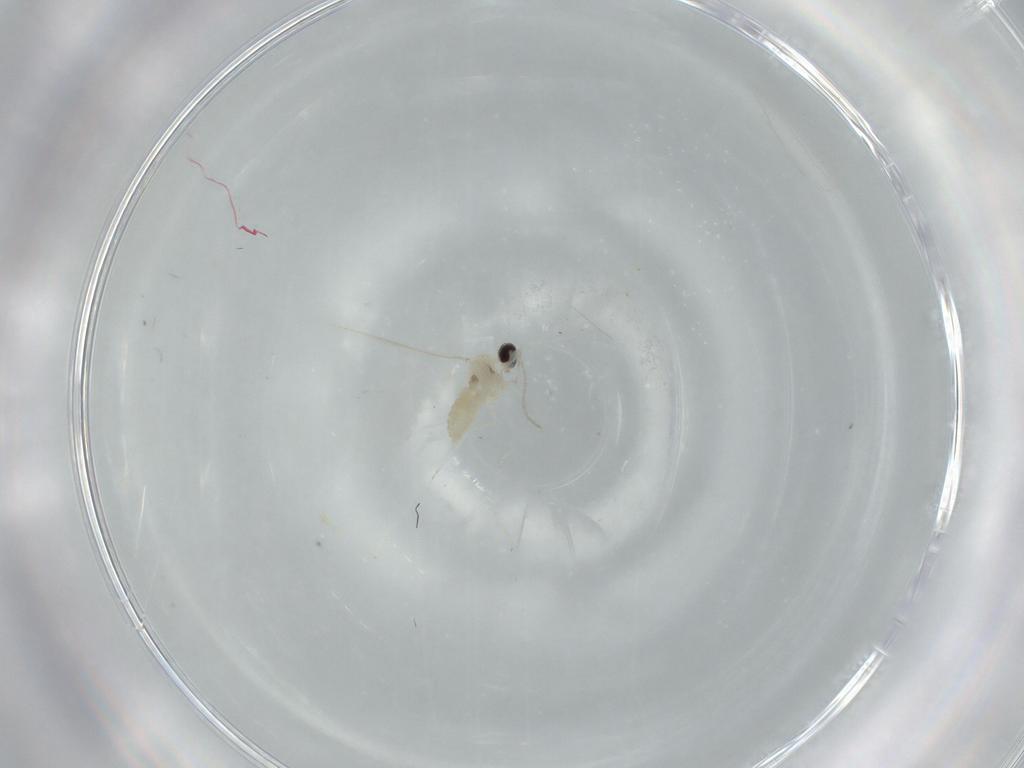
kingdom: Animalia
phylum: Arthropoda
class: Insecta
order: Diptera
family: Cecidomyiidae
